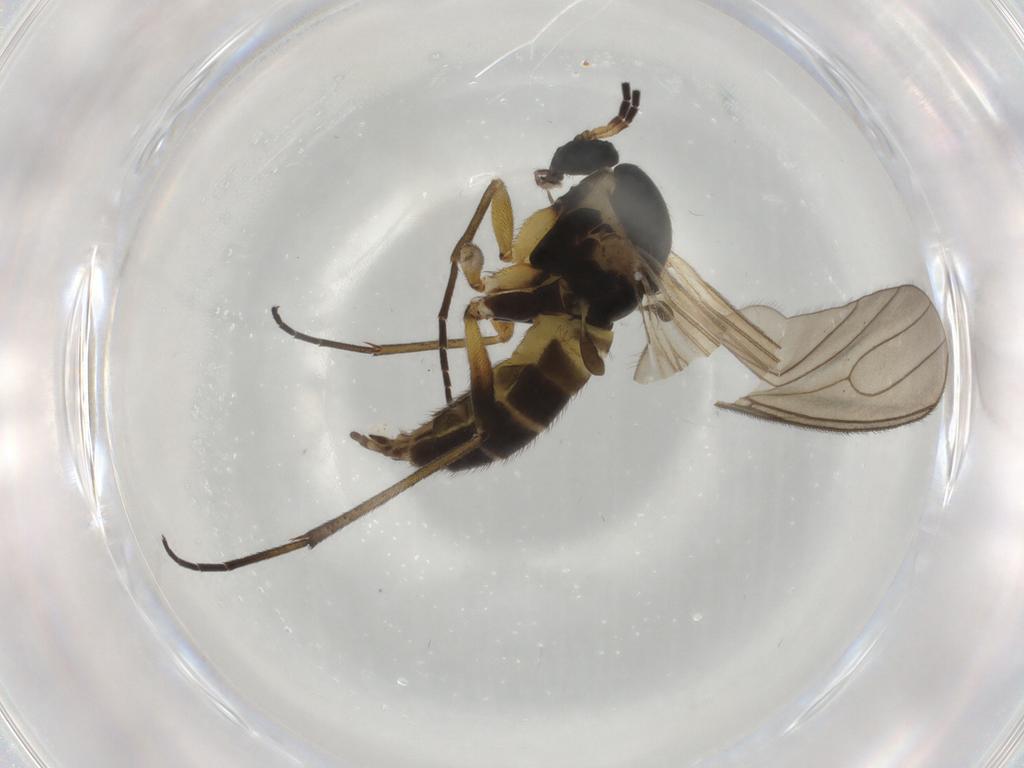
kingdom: Animalia
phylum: Arthropoda
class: Insecta
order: Diptera
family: Sciaridae
